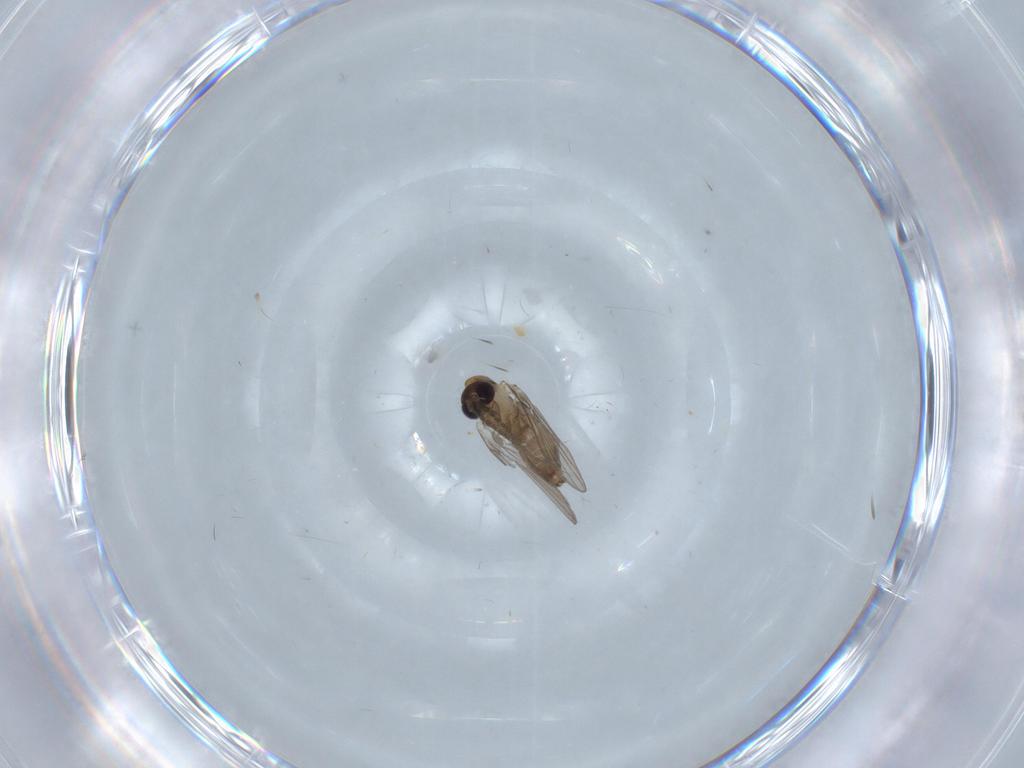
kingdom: Animalia
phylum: Arthropoda
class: Insecta
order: Diptera
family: Psychodidae
